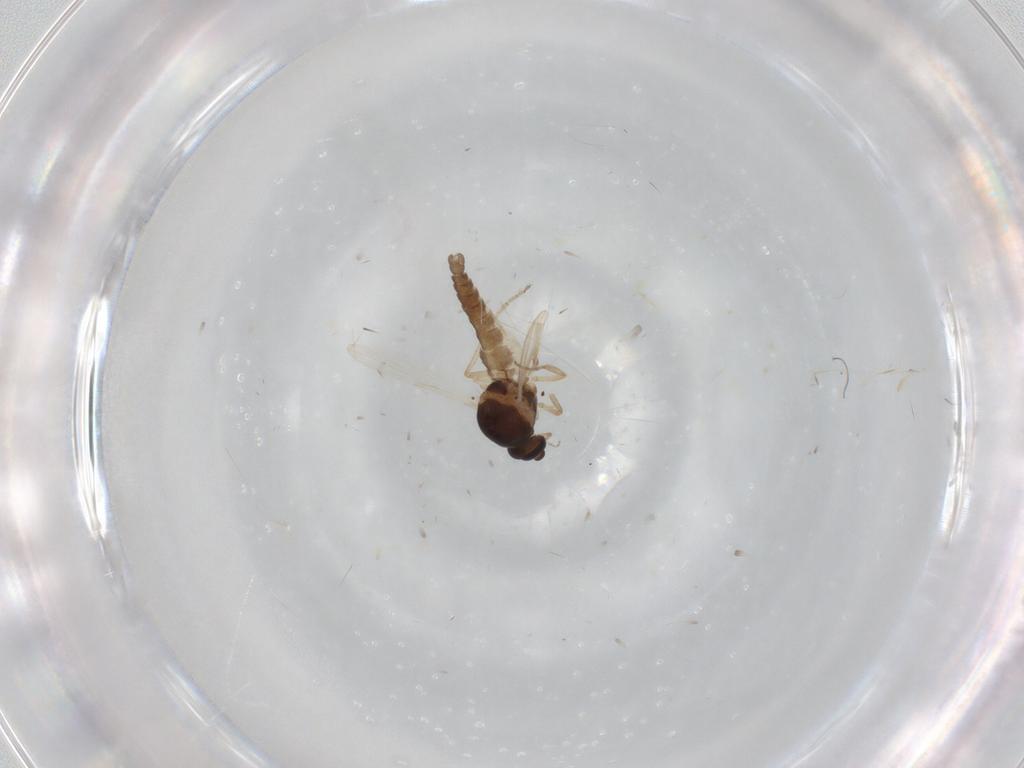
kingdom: Animalia
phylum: Arthropoda
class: Insecta
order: Diptera
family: Ceratopogonidae
